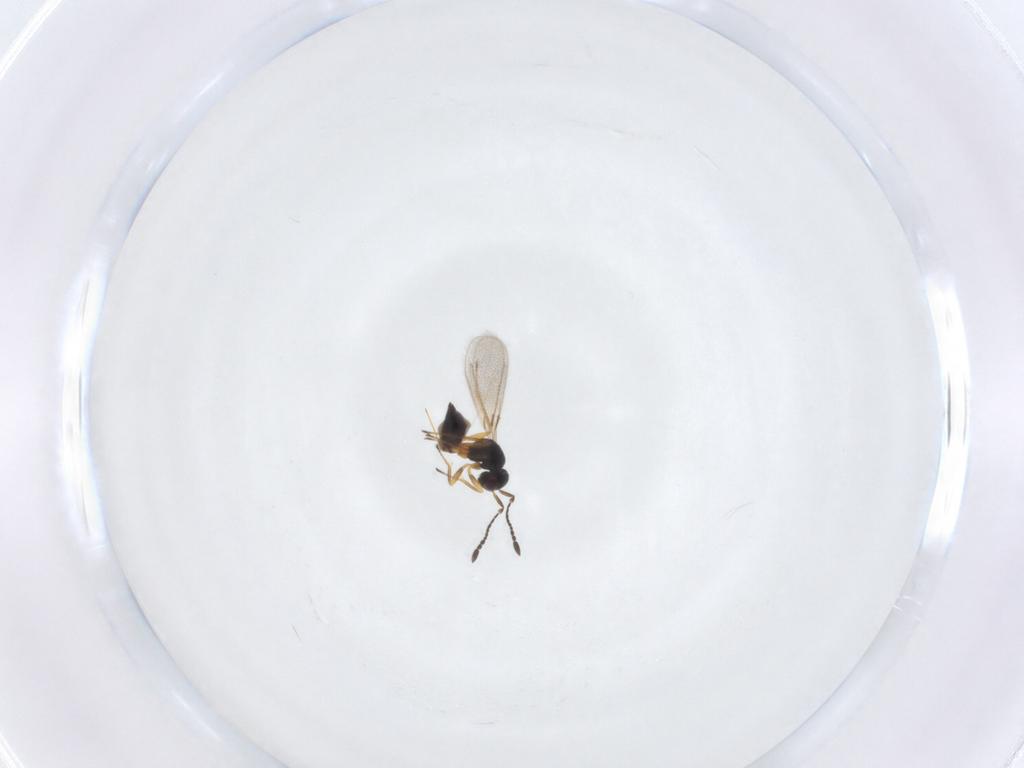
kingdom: Animalia
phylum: Arthropoda
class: Insecta
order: Hymenoptera
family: Mymaridae
